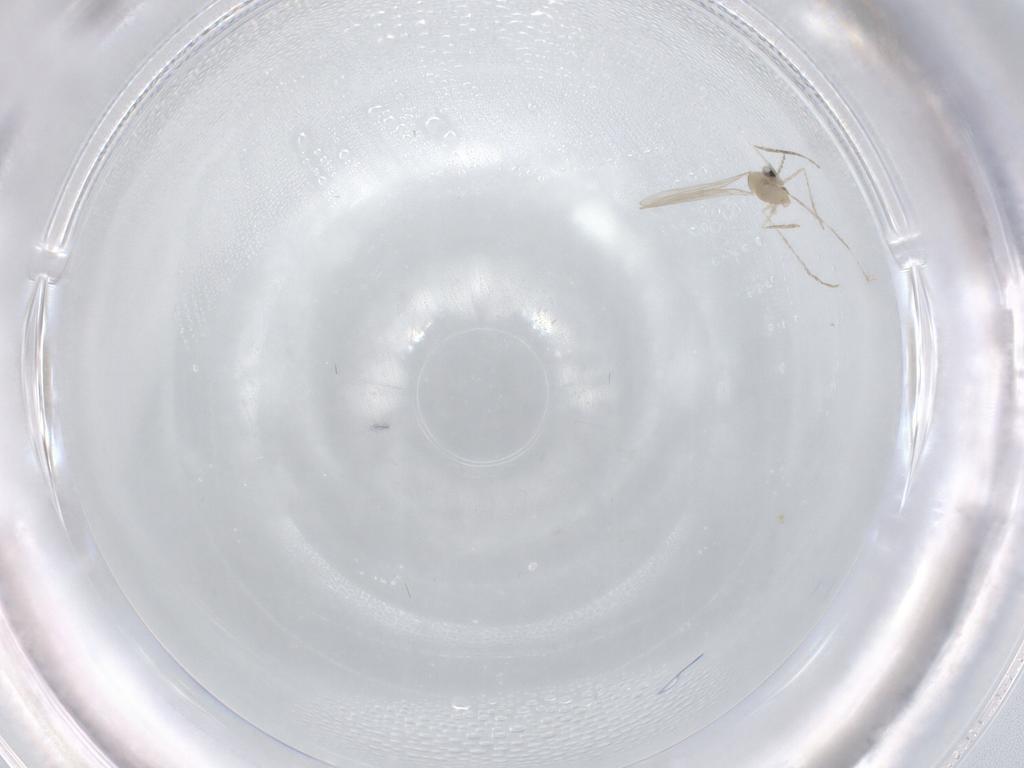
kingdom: Animalia
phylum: Arthropoda
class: Insecta
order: Diptera
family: Cecidomyiidae
